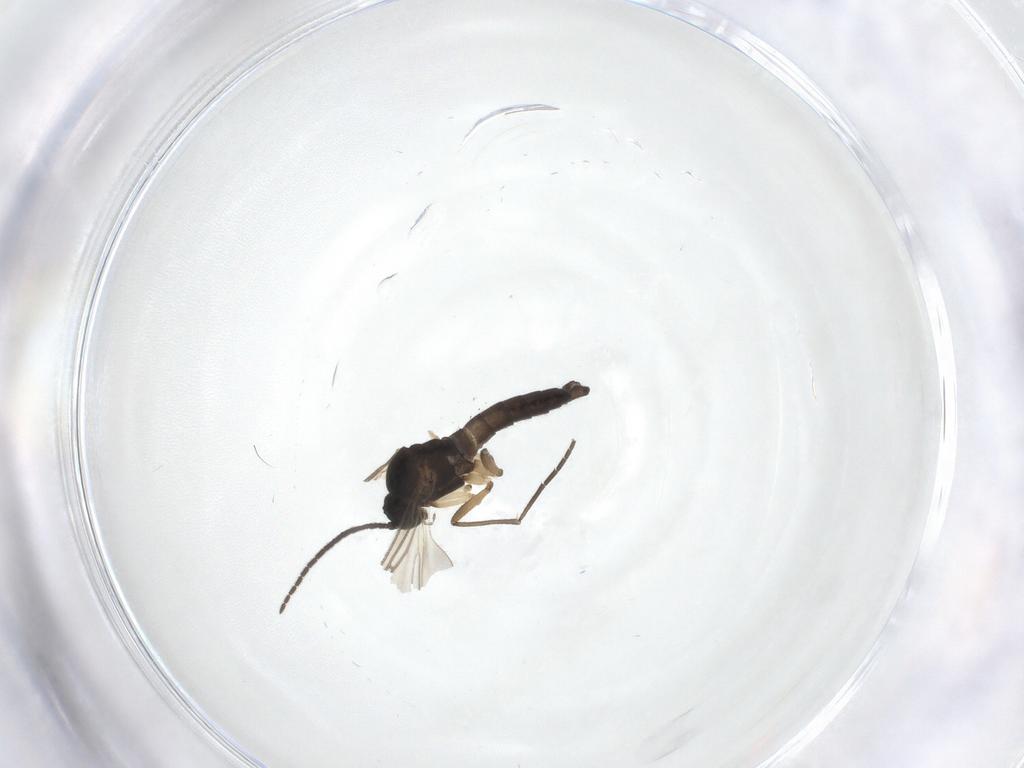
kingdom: Animalia
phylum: Arthropoda
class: Insecta
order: Diptera
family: Sciaridae
